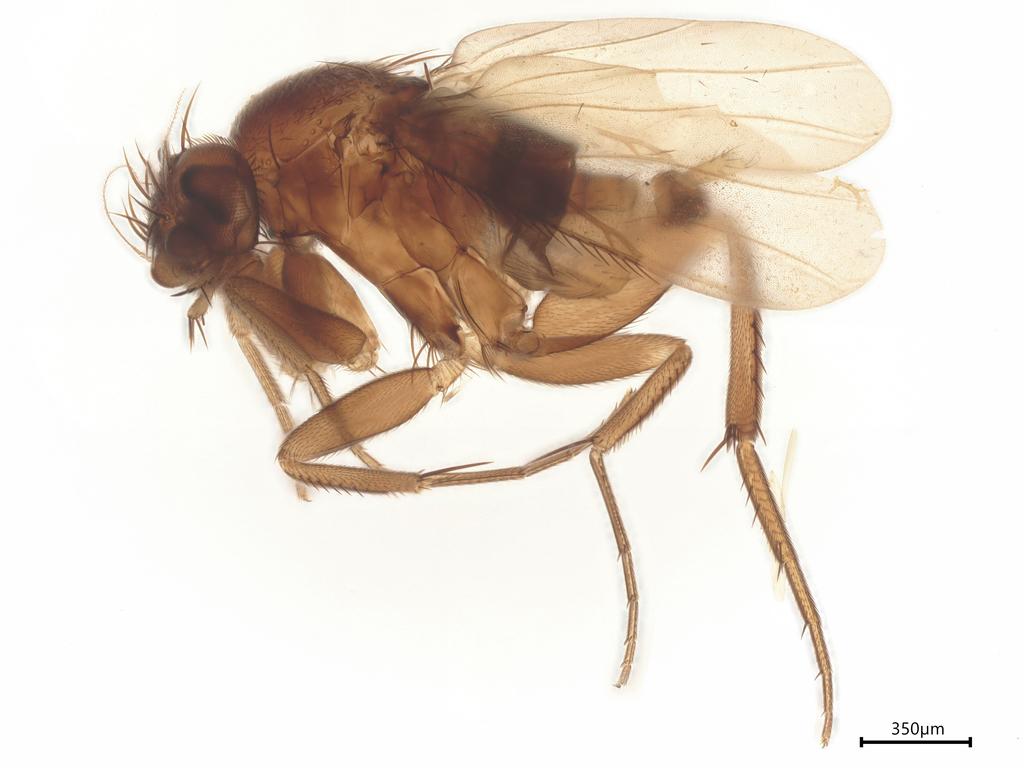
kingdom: Animalia
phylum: Arthropoda
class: Insecta
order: Diptera
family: Phoridae
